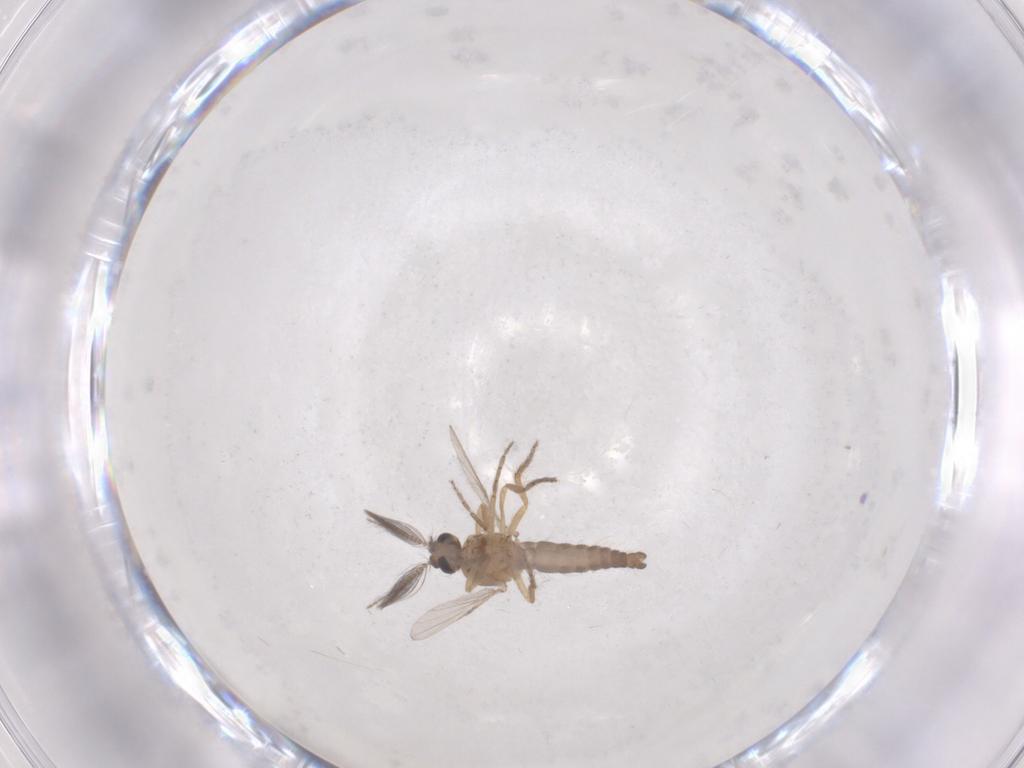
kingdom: Animalia
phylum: Arthropoda
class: Insecta
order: Diptera
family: Ceratopogonidae
